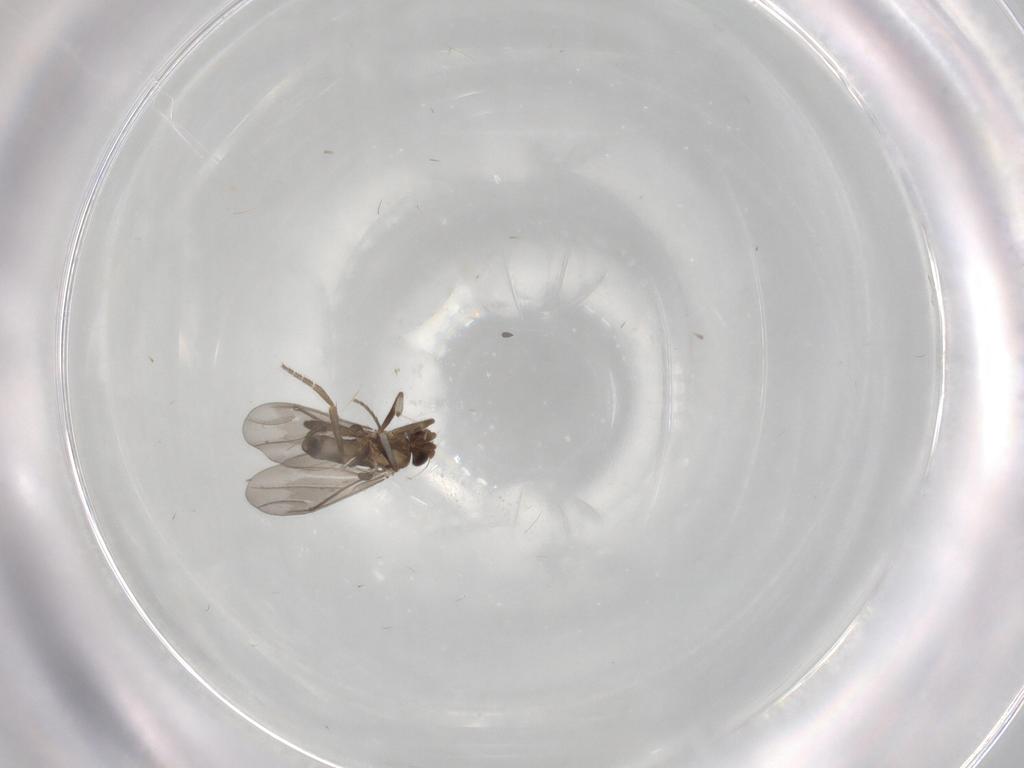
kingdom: Animalia
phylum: Arthropoda
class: Insecta
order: Diptera
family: Phoridae
